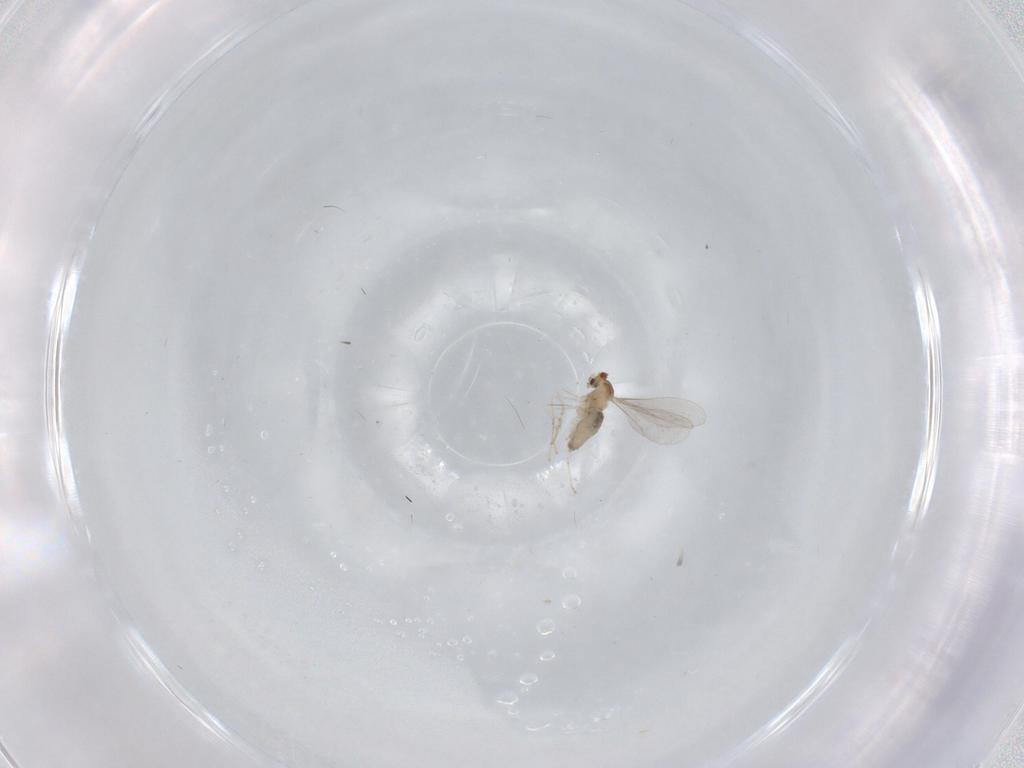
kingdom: Animalia
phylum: Arthropoda
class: Insecta
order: Diptera
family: Cecidomyiidae
